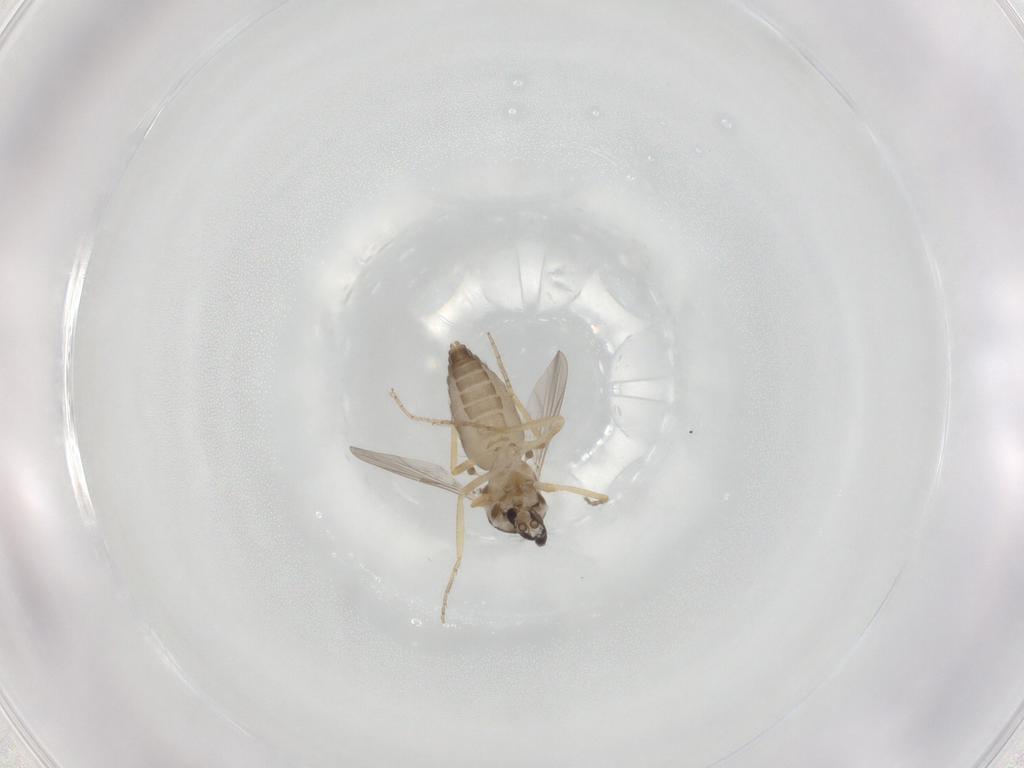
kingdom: Animalia
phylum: Arthropoda
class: Insecta
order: Diptera
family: Ceratopogonidae
